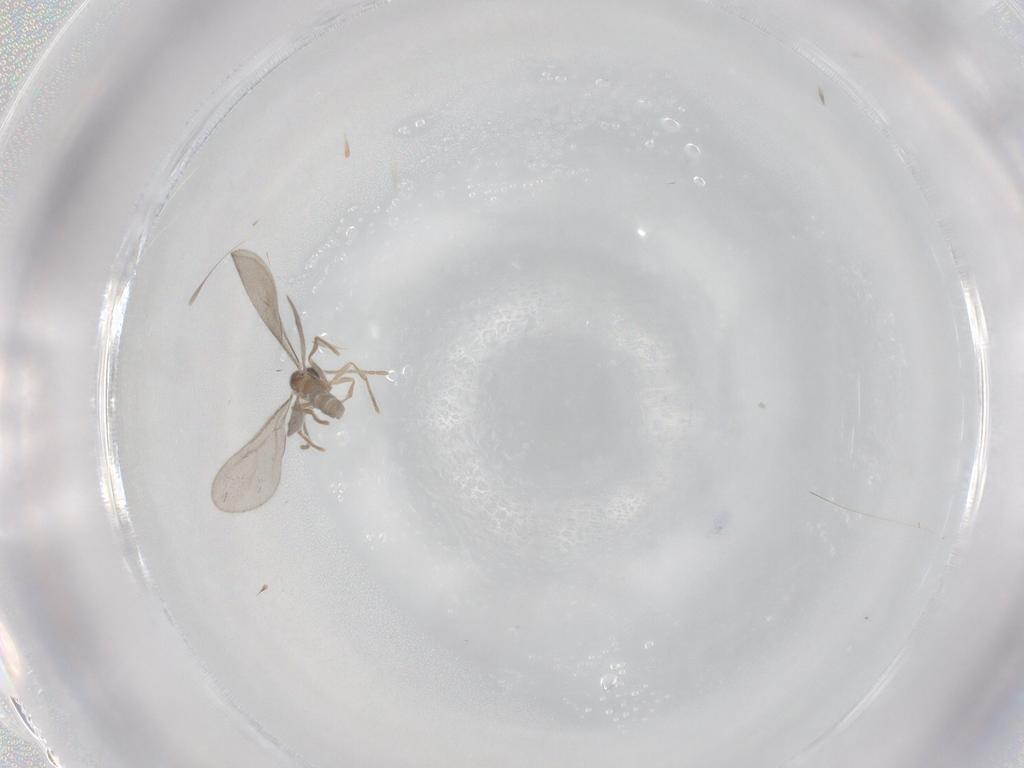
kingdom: Animalia
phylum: Arthropoda
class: Insecta
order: Hymenoptera
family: Bethylidae
